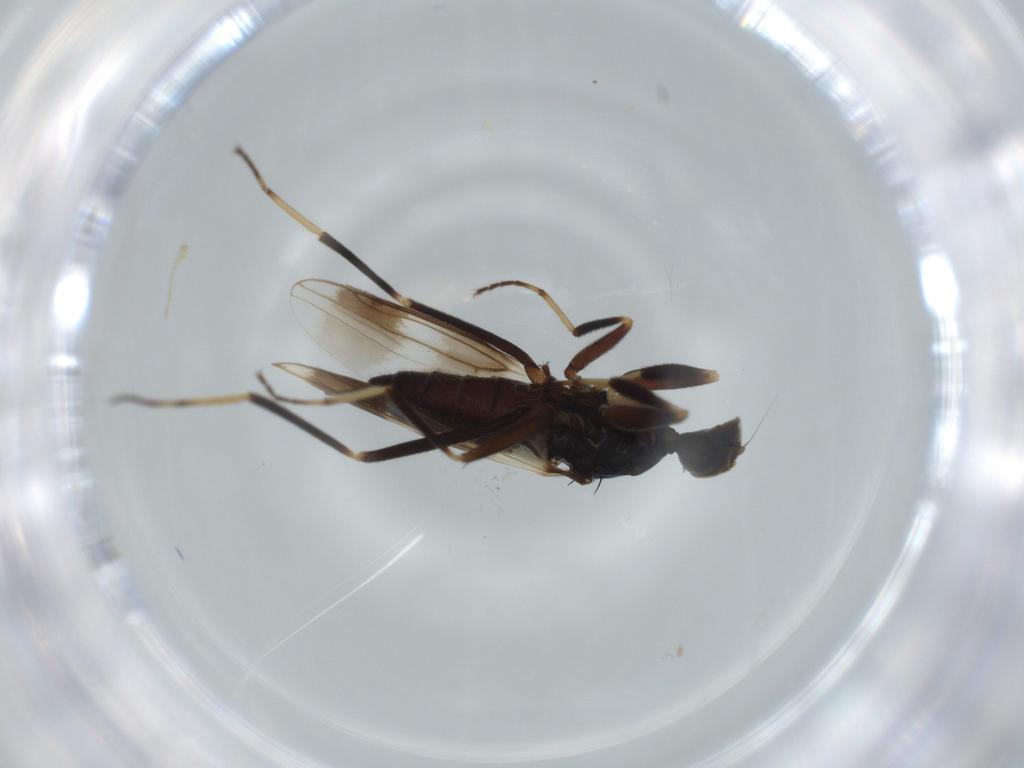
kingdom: Animalia
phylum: Arthropoda
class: Insecta
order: Diptera
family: Hybotidae
